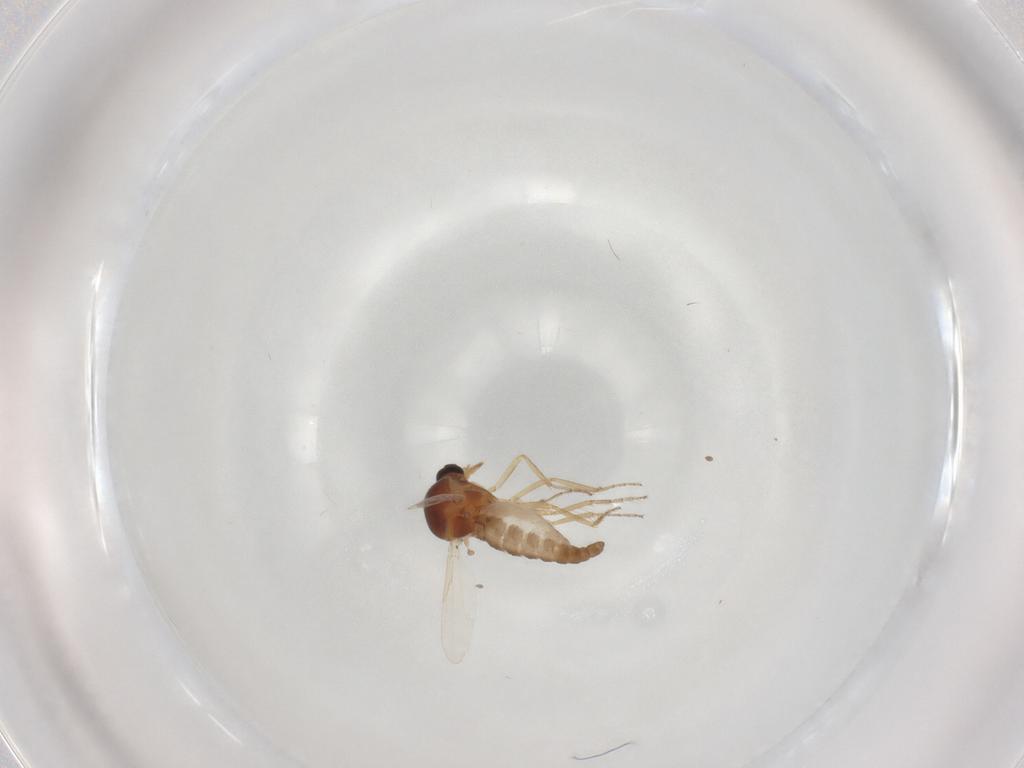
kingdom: Animalia
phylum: Arthropoda
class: Insecta
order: Diptera
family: Ceratopogonidae
